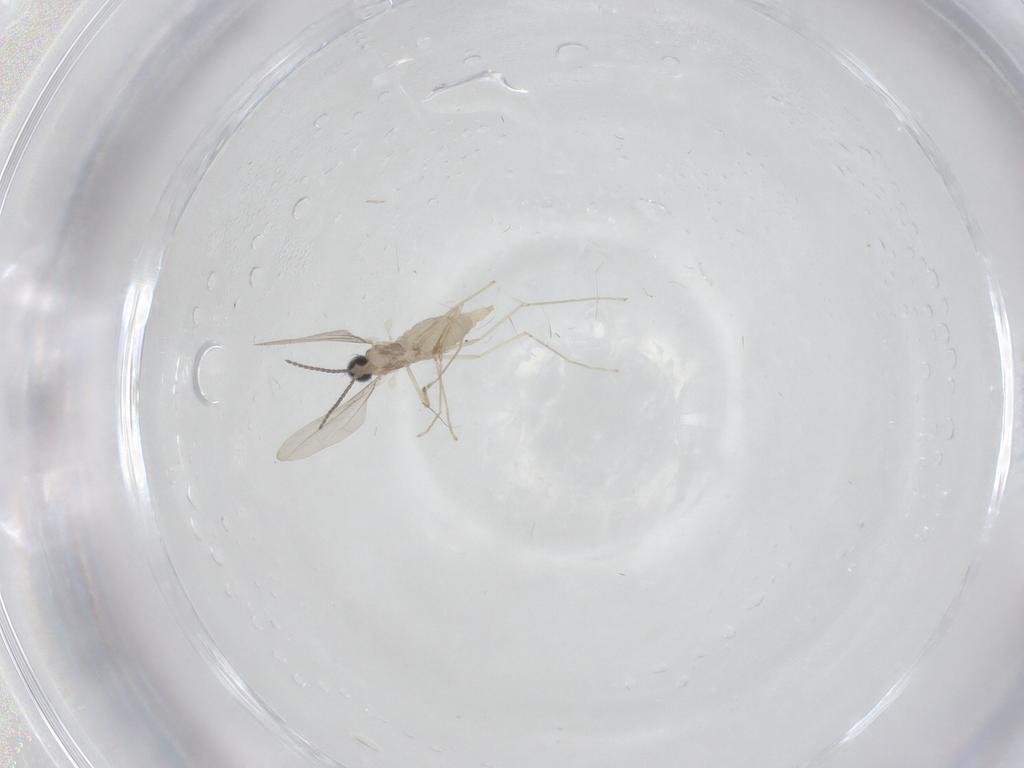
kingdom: Animalia
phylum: Arthropoda
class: Insecta
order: Diptera
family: Cecidomyiidae
